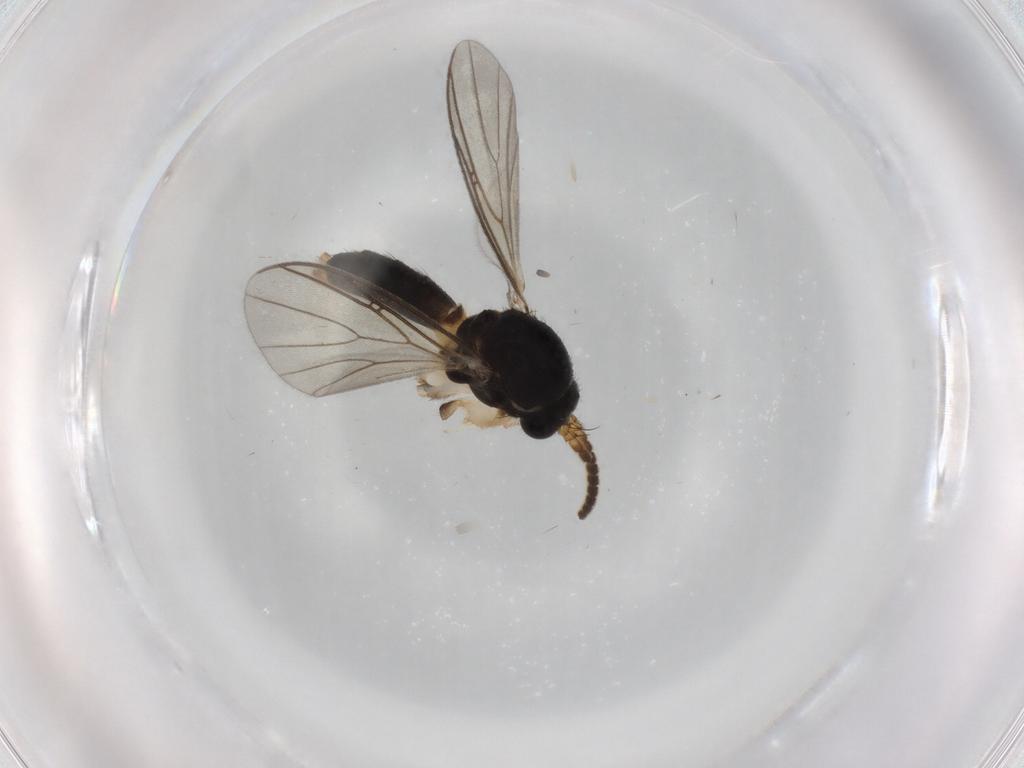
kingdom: Animalia
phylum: Arthropoda
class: Insecta
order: Diptera
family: Chironomidae
